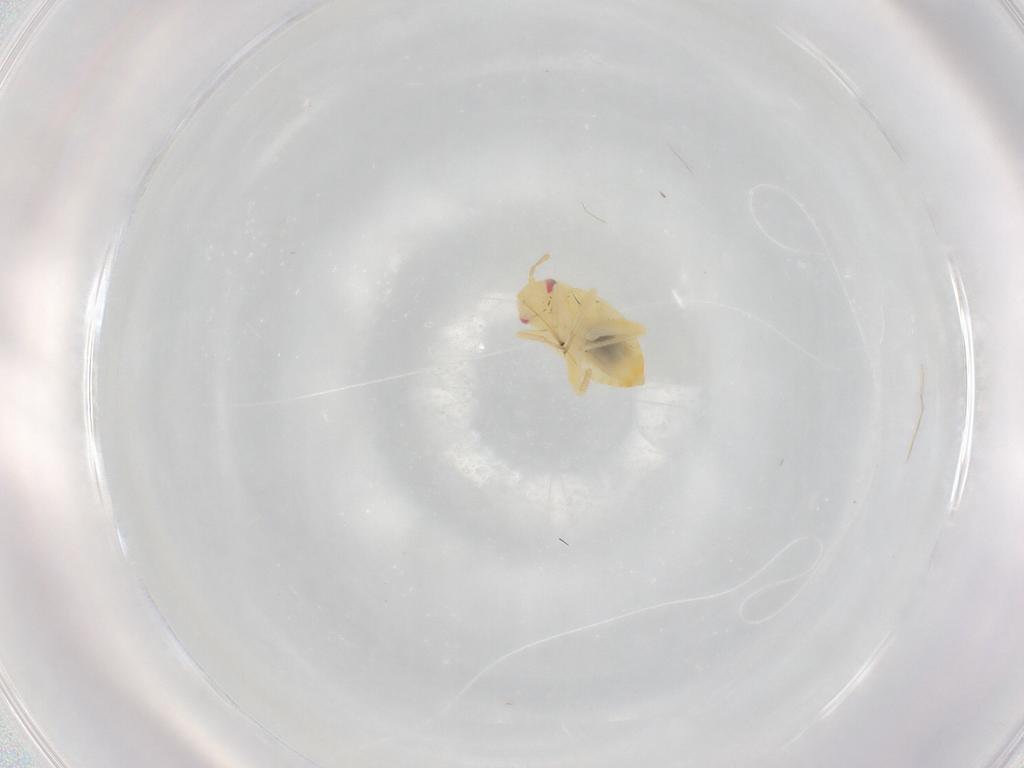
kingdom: Animalia
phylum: Arthropoda
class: Insecta
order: Hemiptera
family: Miridae
